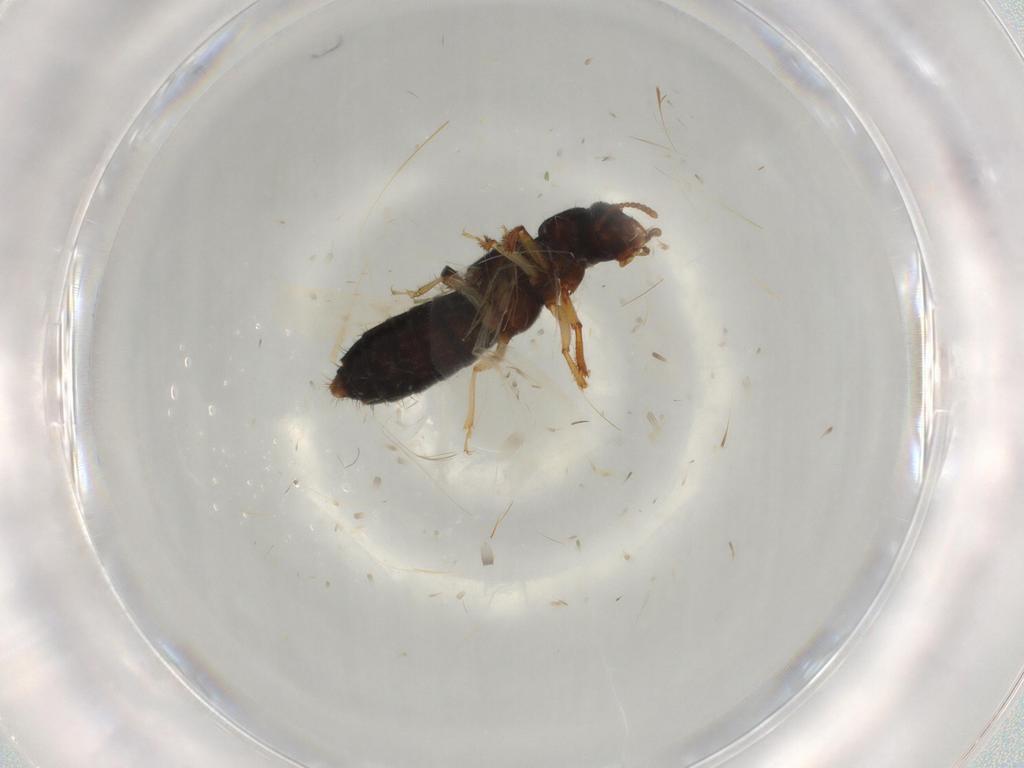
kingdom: Animalia
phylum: Arthropoda
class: Insecta
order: Coleoptera
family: Staphylinidae
